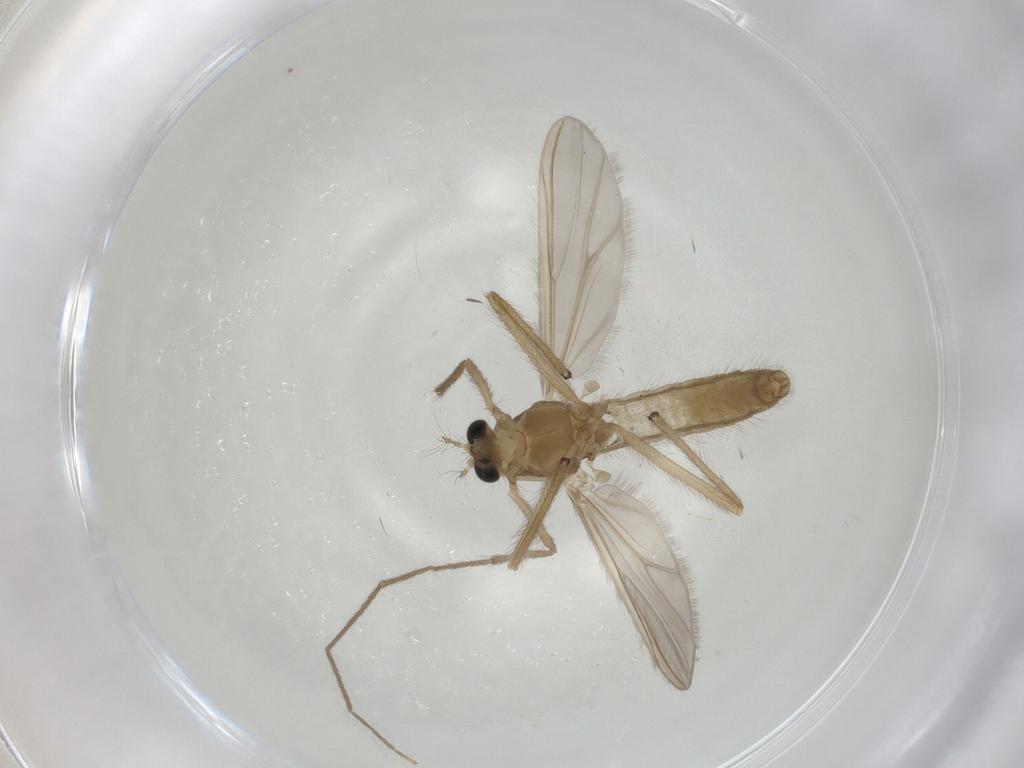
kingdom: Animalia
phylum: Arthropoda
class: Insecta
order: Diptera
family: Chironomidae
